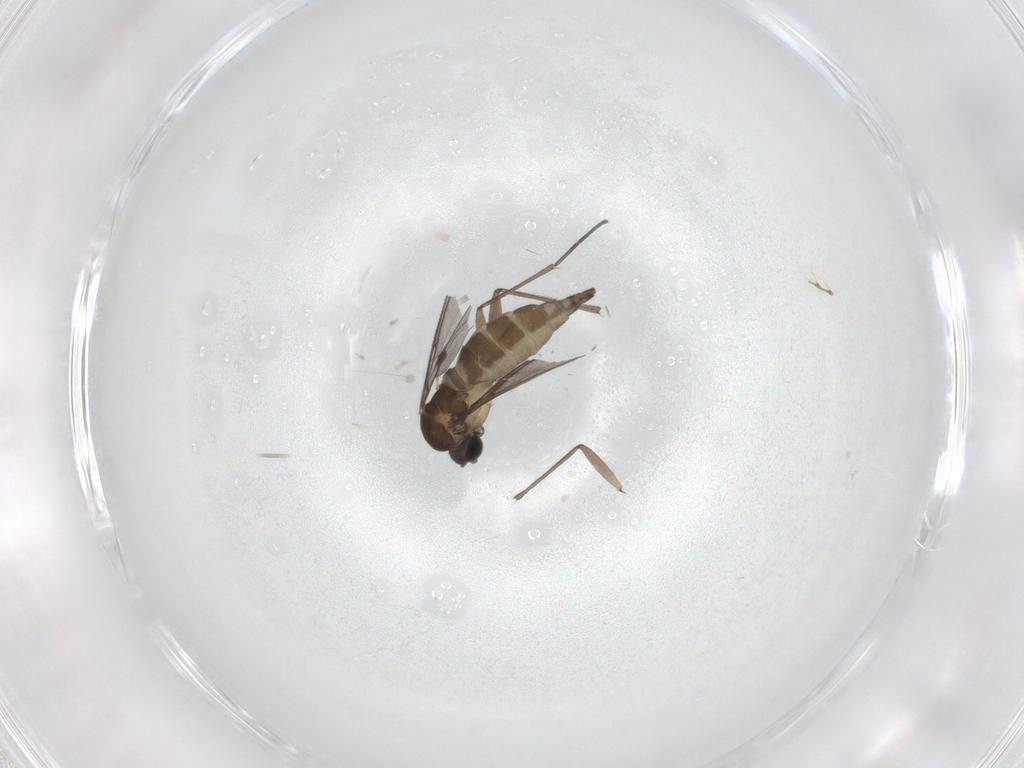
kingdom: Animalia
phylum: Arthropoda
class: Insecta
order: Diptera
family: Sciaridae
